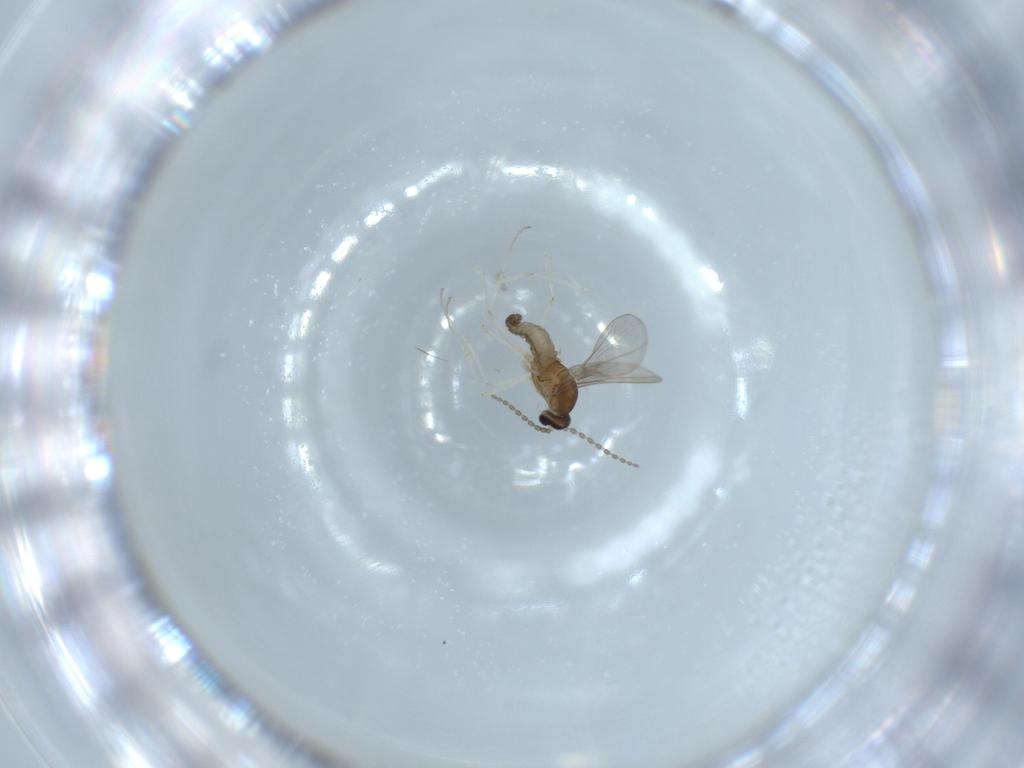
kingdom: Animalia
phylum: Arthropoda
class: Insecta
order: Diptera
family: Cecidomyiidae
